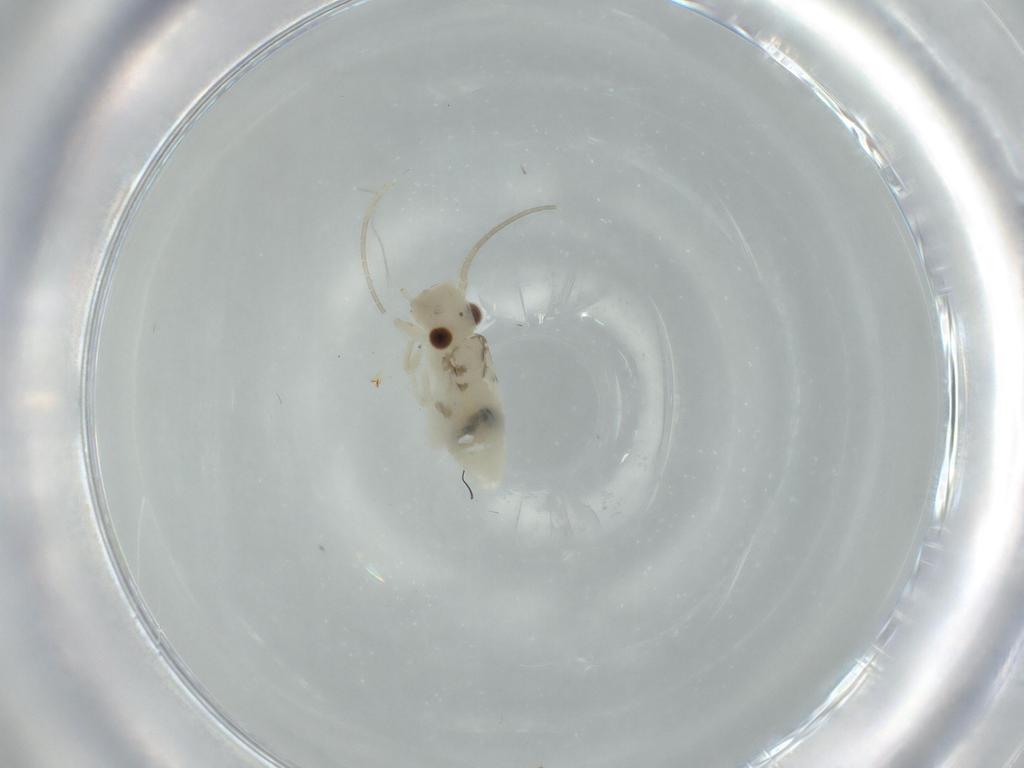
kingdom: Animalia
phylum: Arthropoda
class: Insecta
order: Psocodea
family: Caeciliusidae
